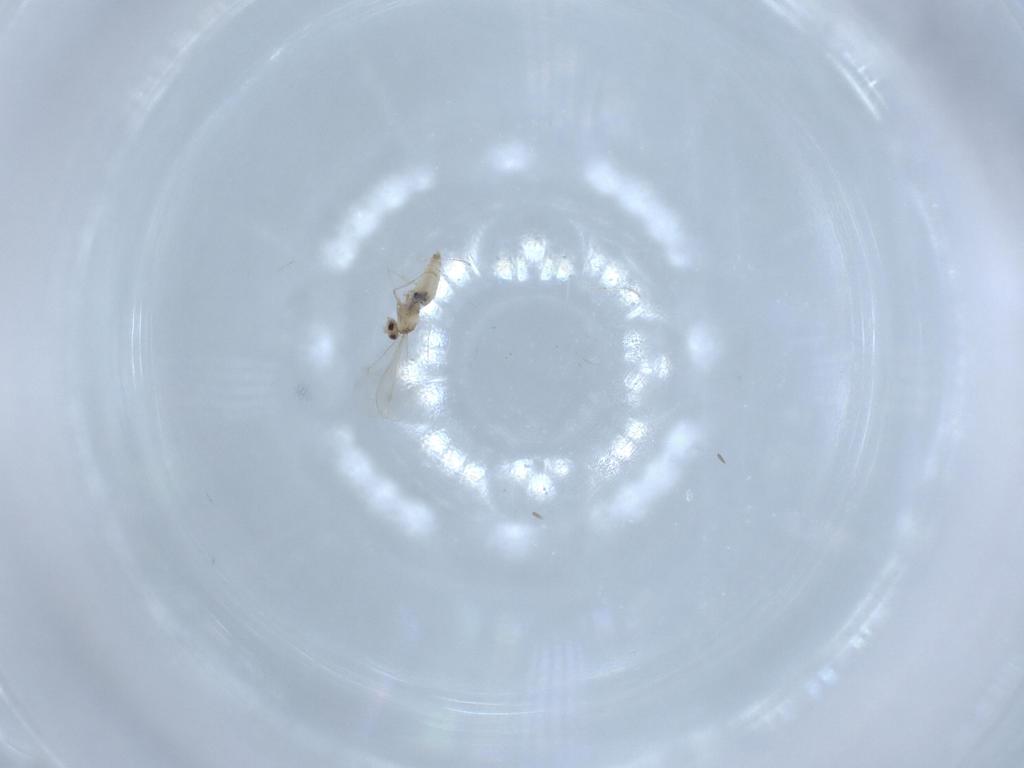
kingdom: Animalia
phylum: Arthropoda
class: Insecta
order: Diptera
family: Cecidomyiidae
